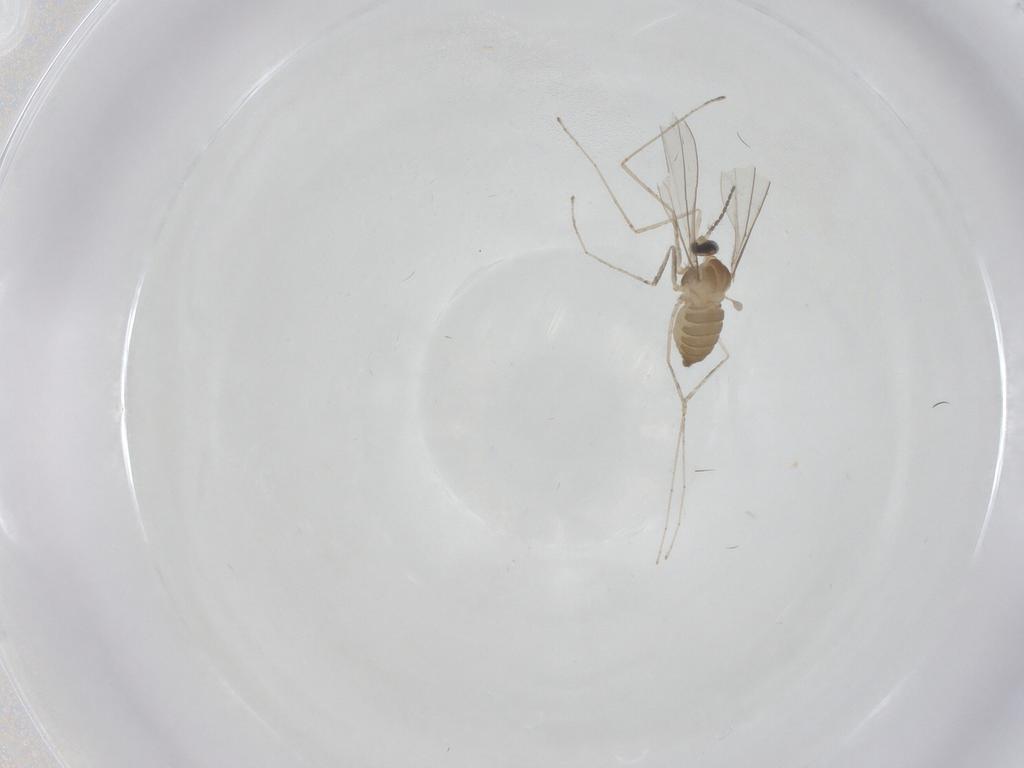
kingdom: Animalia
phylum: Arthropoda
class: Insecta
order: Diptera
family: Cecidomyiidae
